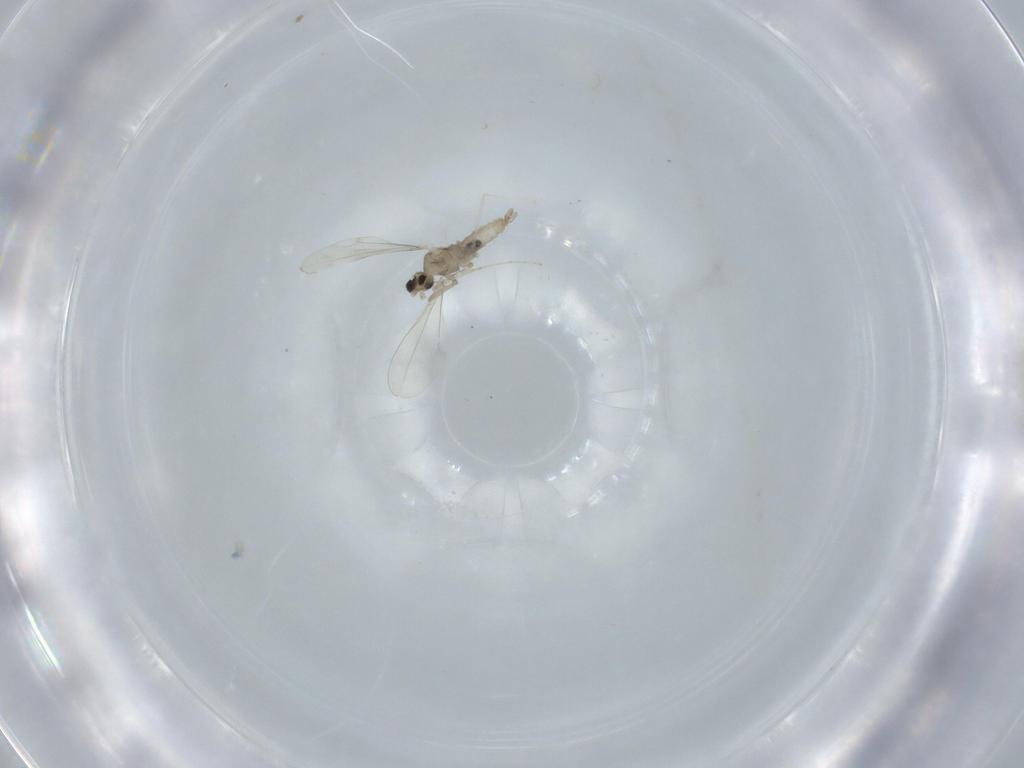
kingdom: Animalia
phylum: Arthropoda
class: Insecta
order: Diptera
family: Cecidomyiidae
